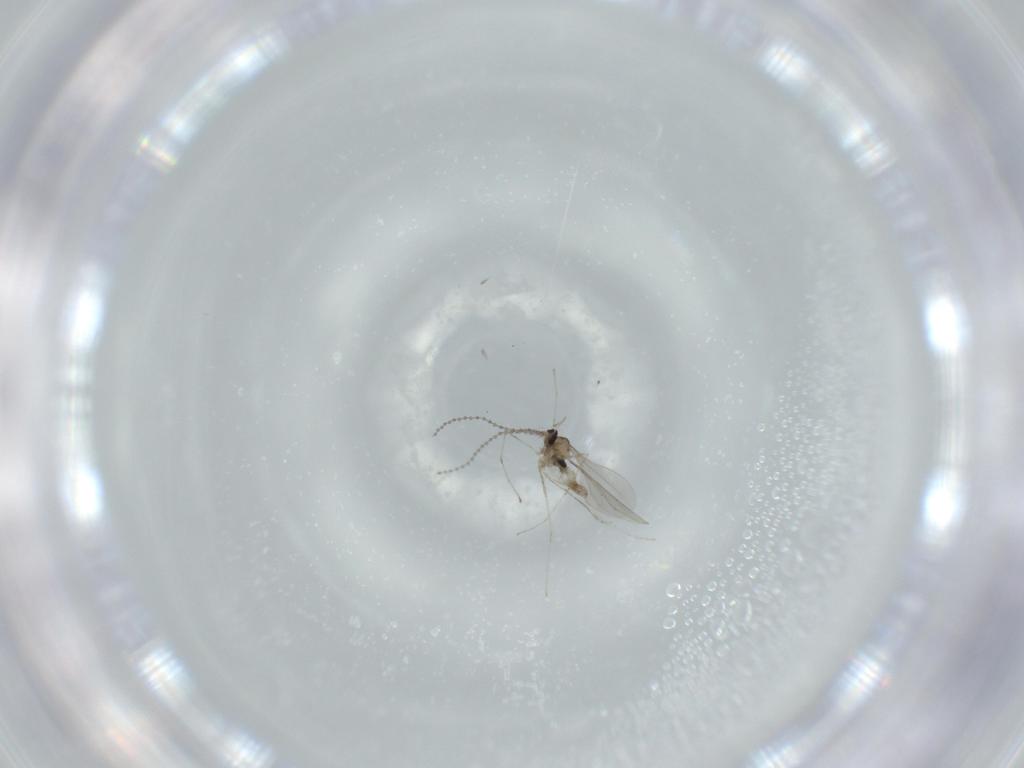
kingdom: Animalia
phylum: Arthropoda
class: Insecta
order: Diptera
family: Cecidomyiidae
